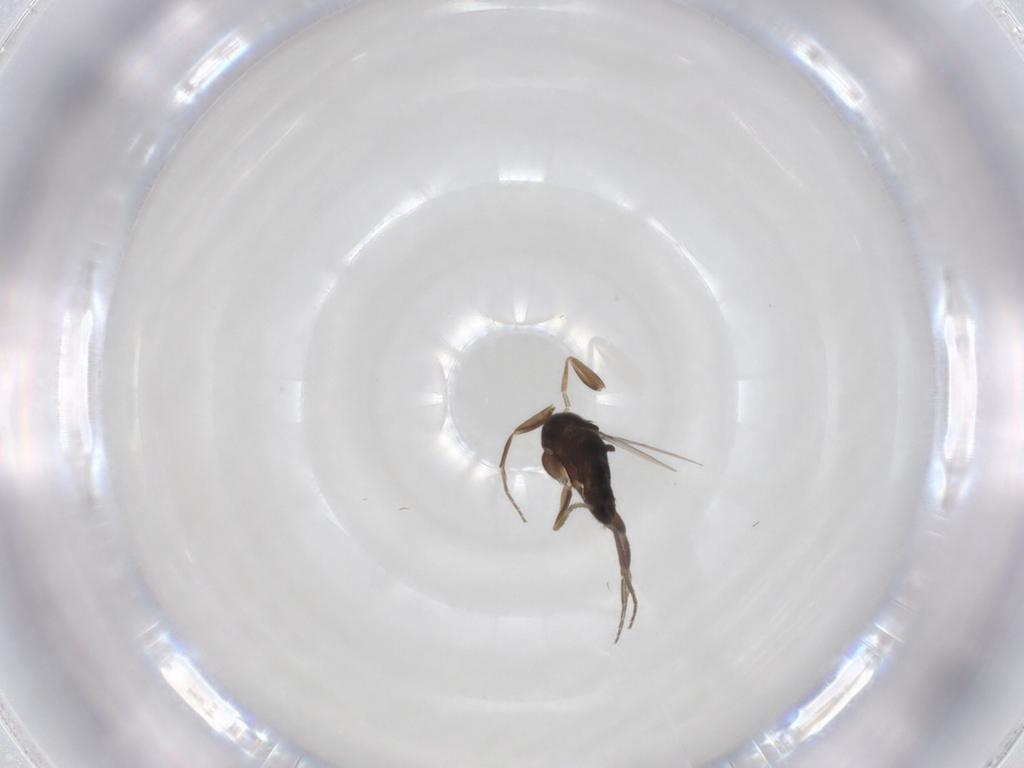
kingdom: Animalia
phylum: Arthropoda
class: Insecta
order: Diptera
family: Phoridae
